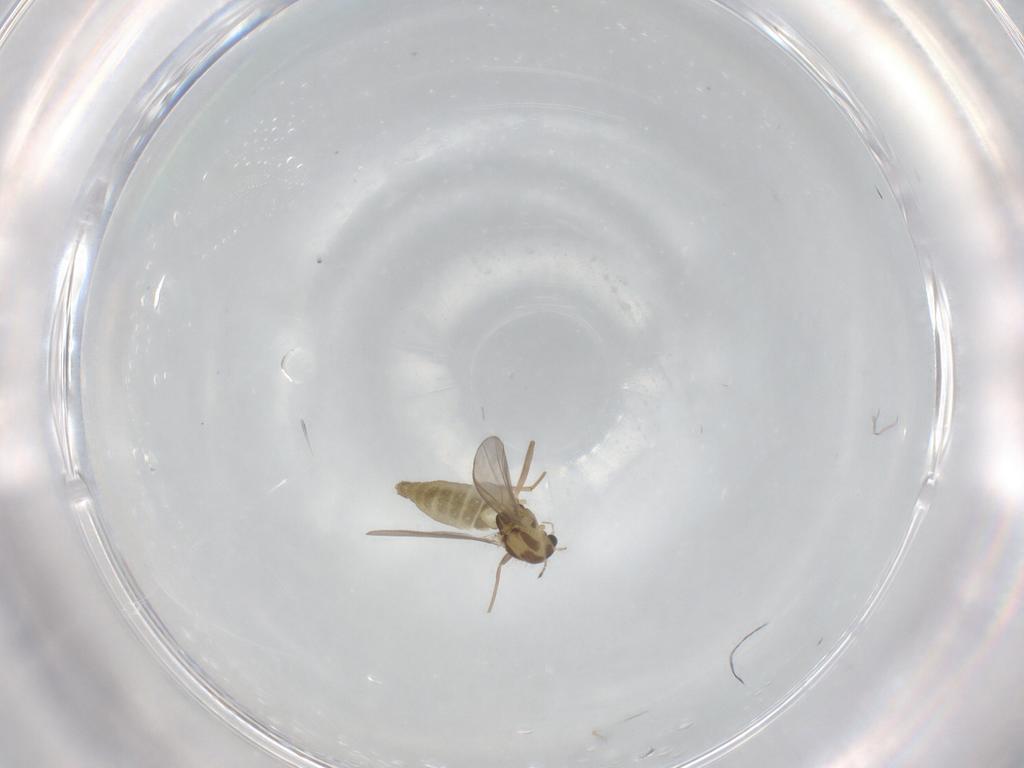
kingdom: Animalia
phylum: Arthropoda
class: Insecta
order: Diptera
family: Chironomidae
